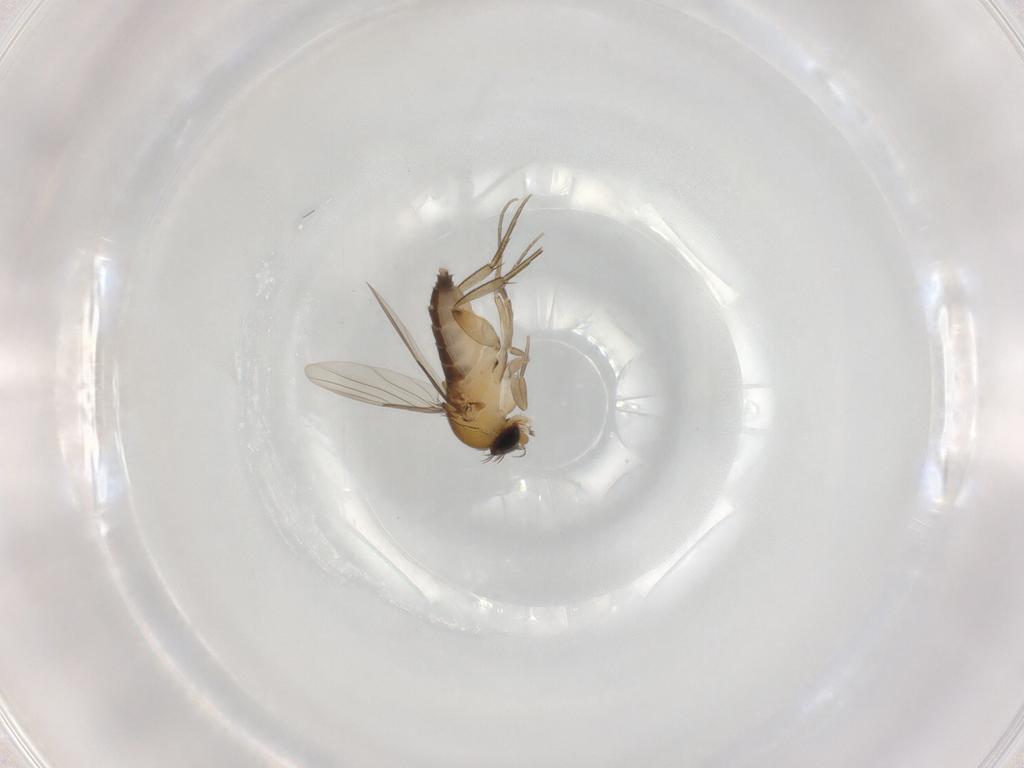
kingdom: Animalia
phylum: Arthropoda
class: Insecta
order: Diptera
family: Phoridae
